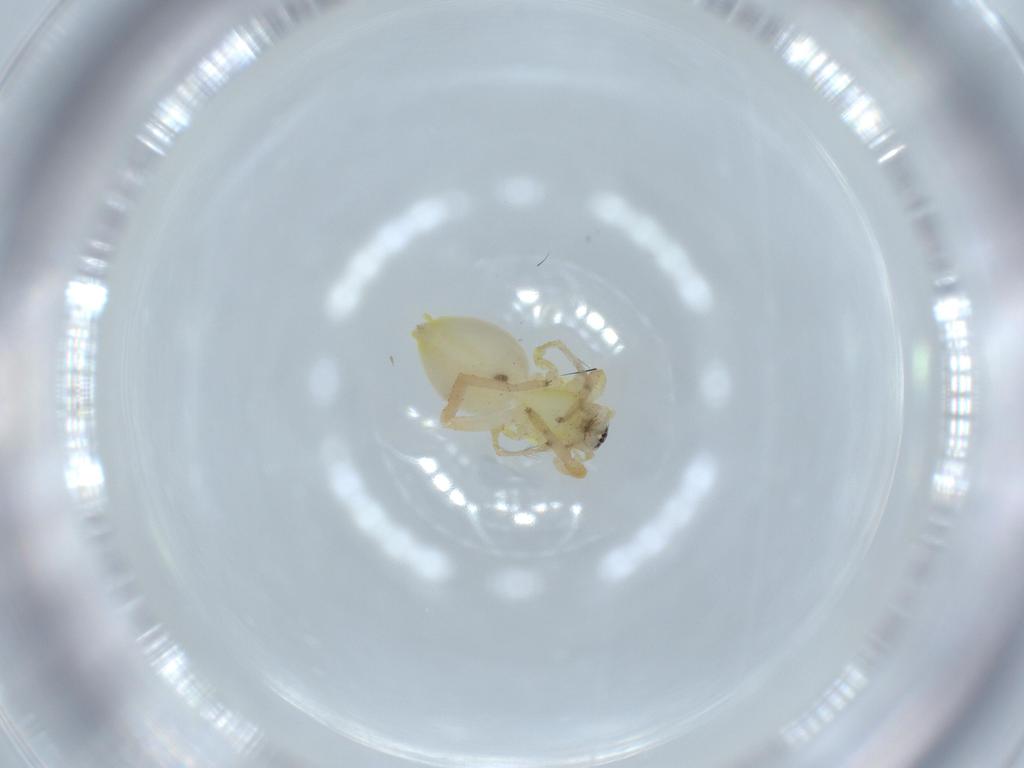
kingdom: Animalia
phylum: Arthropoda
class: Arachnida
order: Araneae
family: Anyphaenidae
